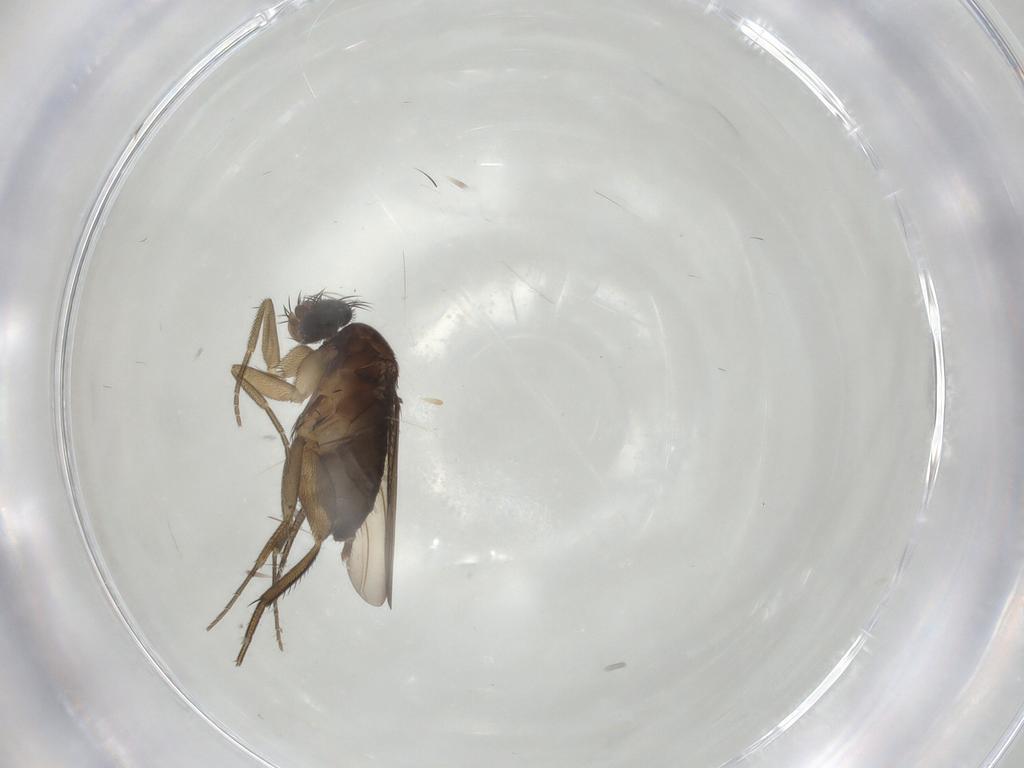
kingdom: Animalia
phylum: Arthropoda
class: Insecta
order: Diptera
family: Phoridae
